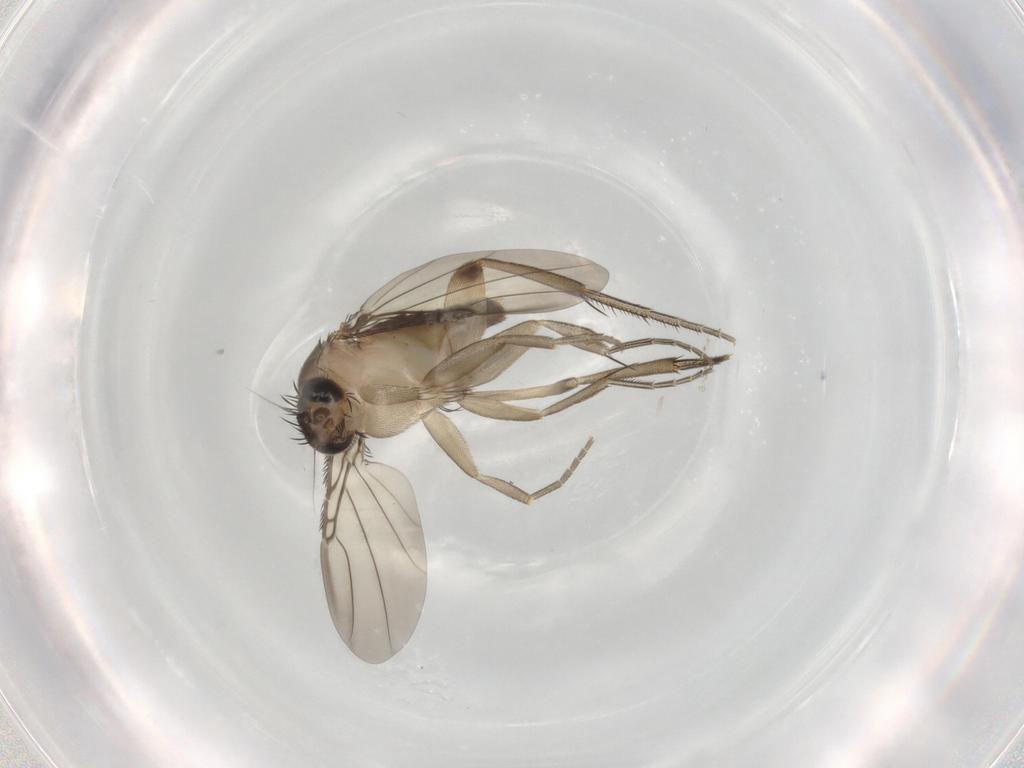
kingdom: Animalia
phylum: Arthropoda
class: Insecta
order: Diptera
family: Phoridae
